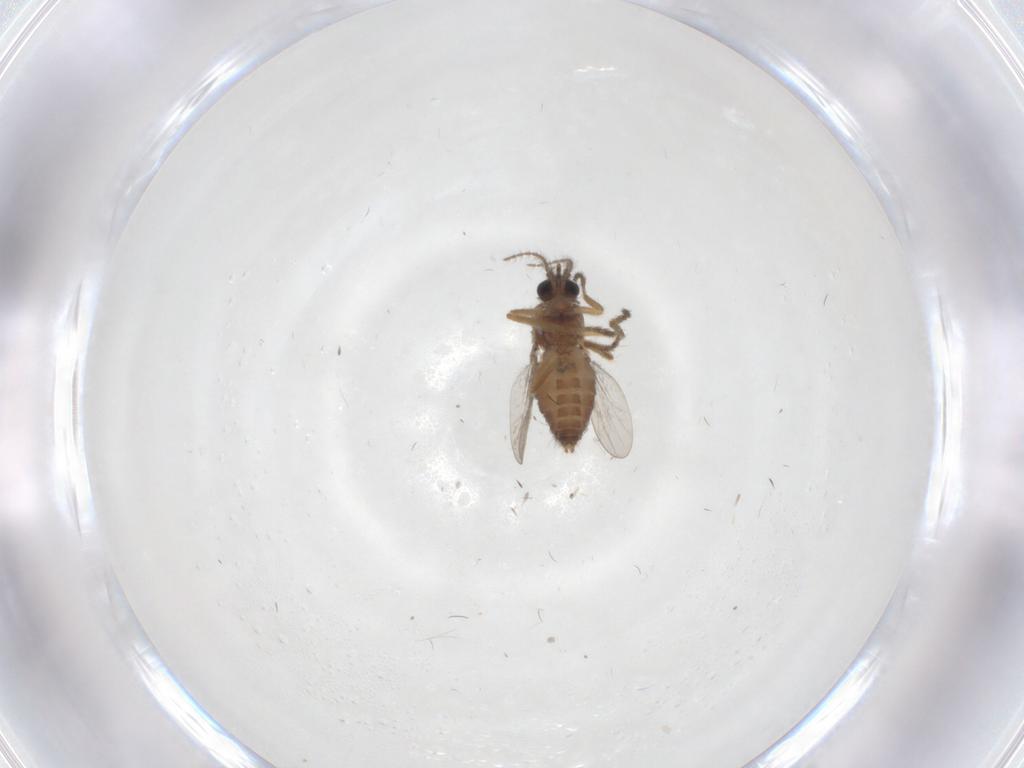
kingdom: Animalia
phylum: Arthropoda
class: Insecta
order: Diptera
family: Ceratopogonidae
